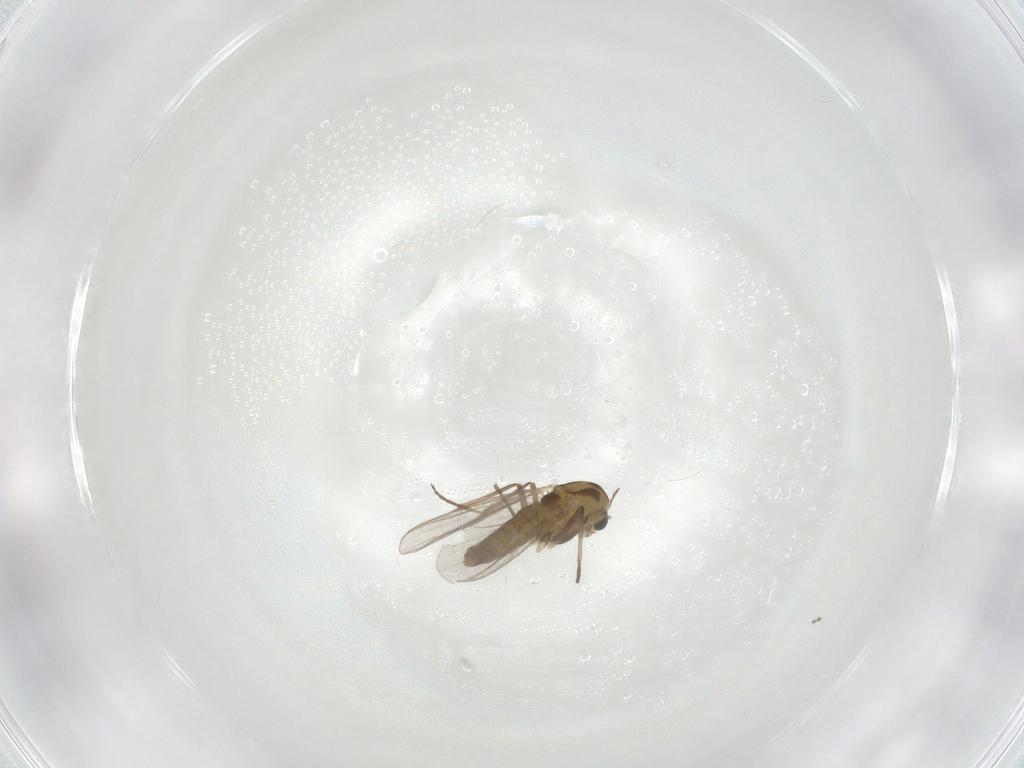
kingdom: Animalia
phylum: Arthropoda
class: Insecta
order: Diptera
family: Chironomidae
